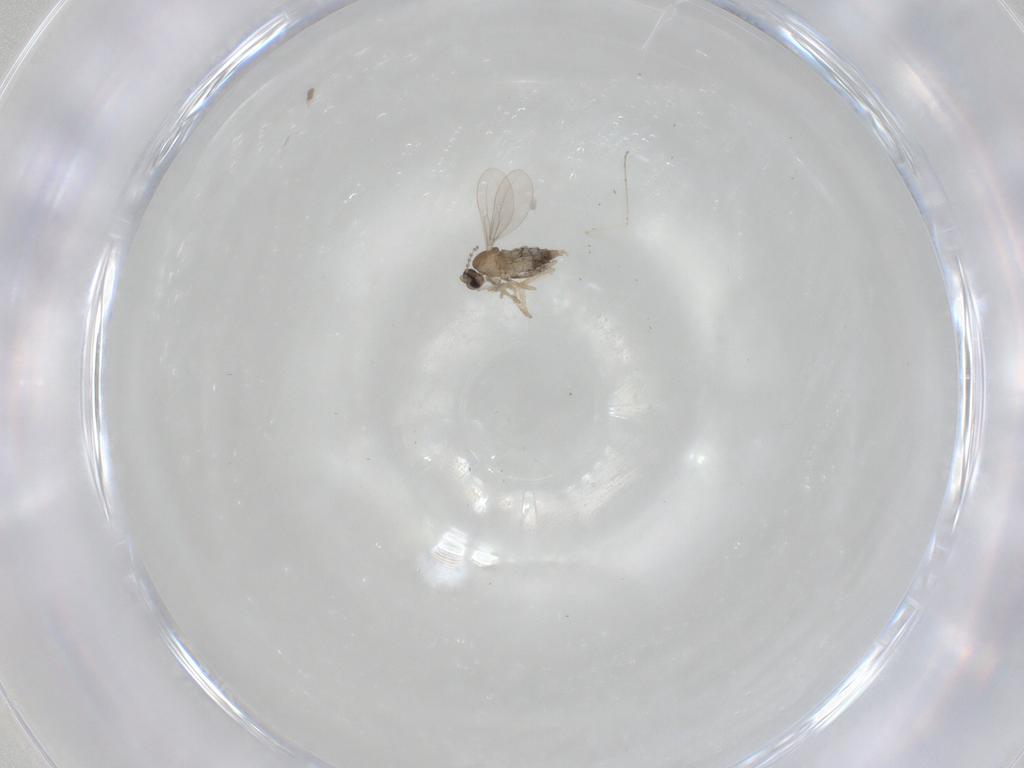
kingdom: Animalia
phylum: Arthropoda
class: Insecta
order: Diptera
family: Cecidomyiidae
